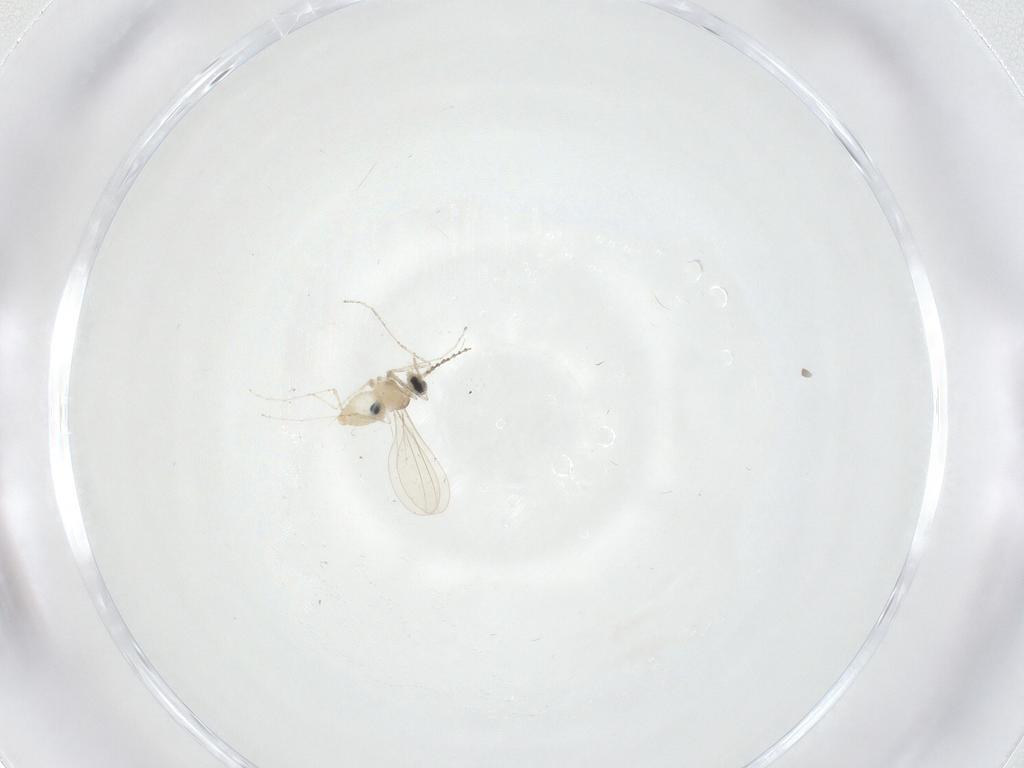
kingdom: Animalia
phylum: Arthropoda
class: Insecta
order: Diptera
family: Cecidomyiidae
